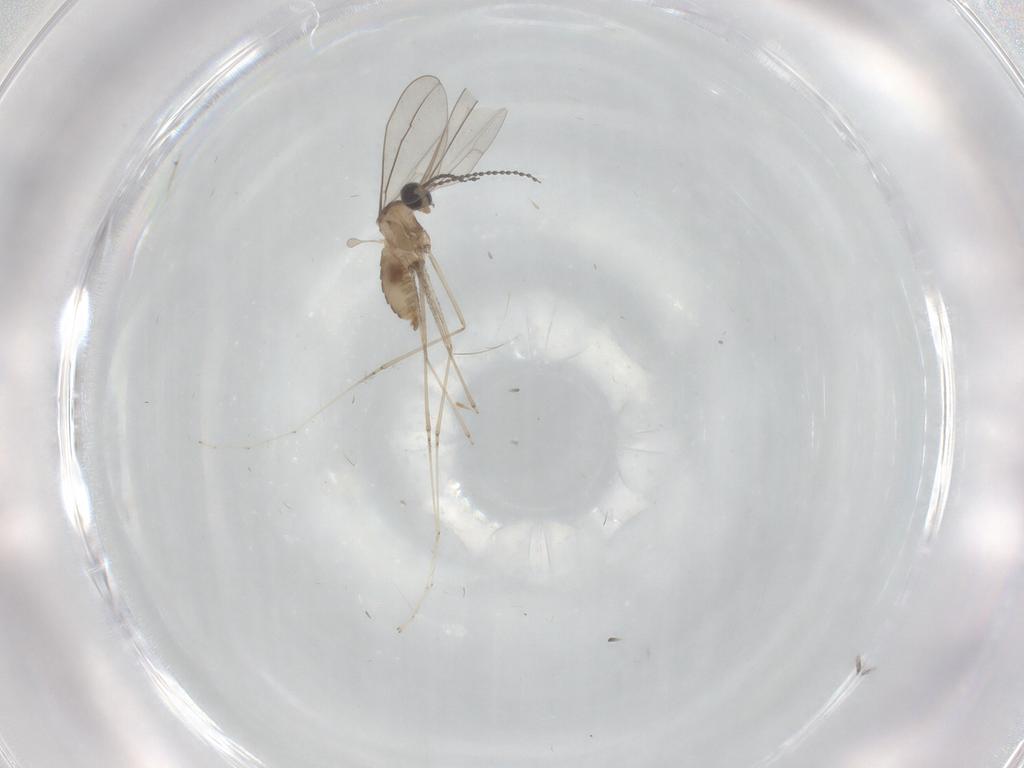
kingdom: Animalia
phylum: Arthropoda
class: Insecta
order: Diptera
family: Cecidomyiidae
